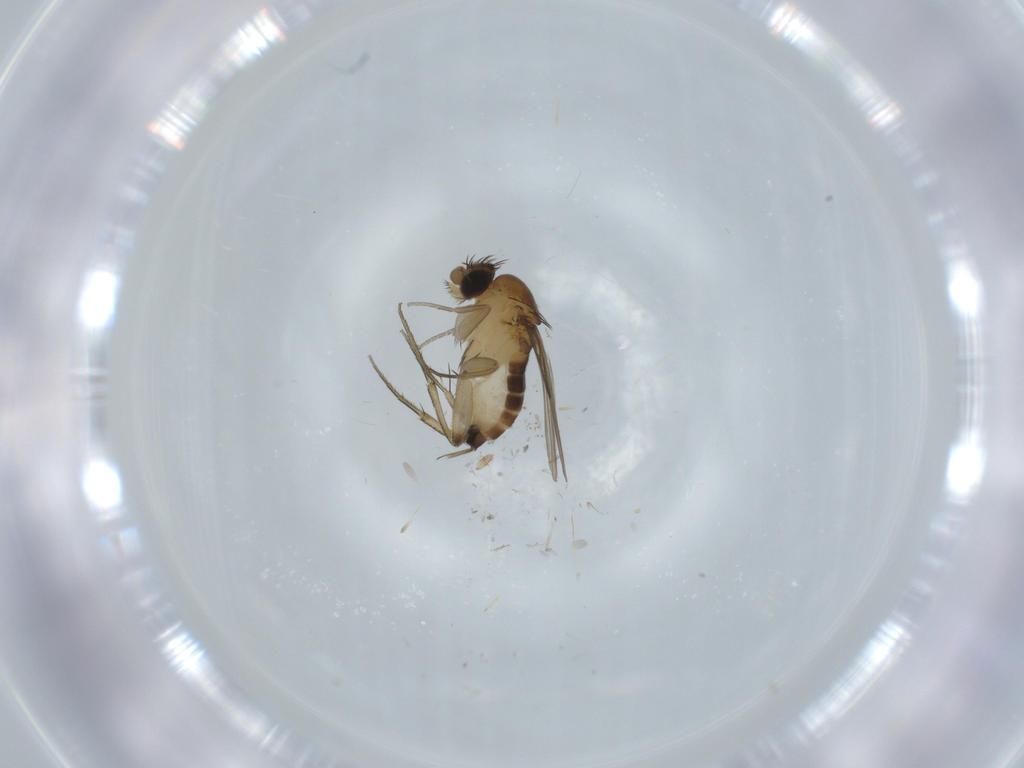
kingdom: Animalia
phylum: Arthropoda
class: Insecta
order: Diptera
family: Phoridae
